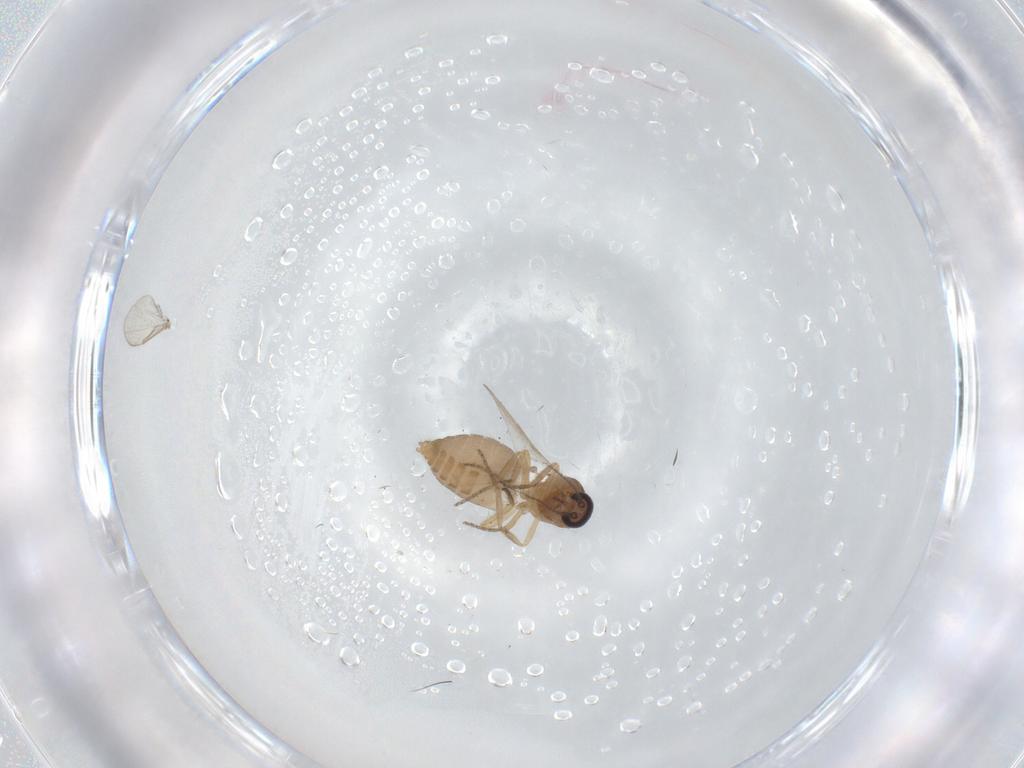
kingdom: Animalia
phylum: Arthropoda
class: Insecta
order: Diptera
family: Ceratopogonidae
